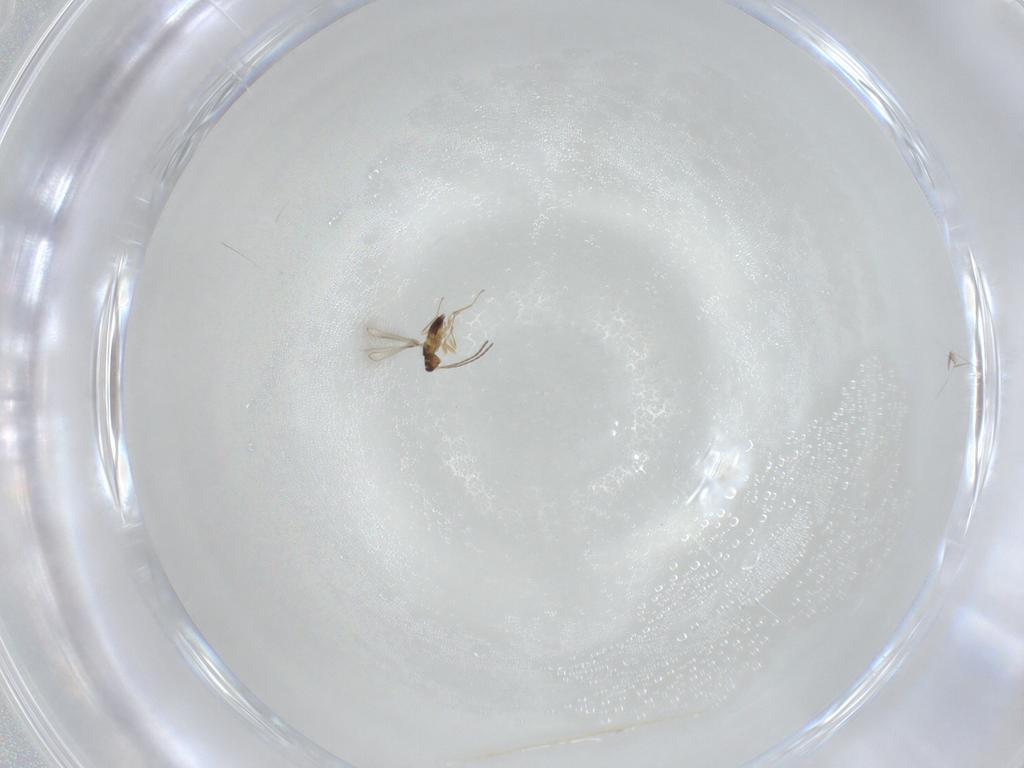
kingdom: Animalia
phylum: Arthropoda
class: Insecta
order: Hymenoptera
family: Mymaridae
